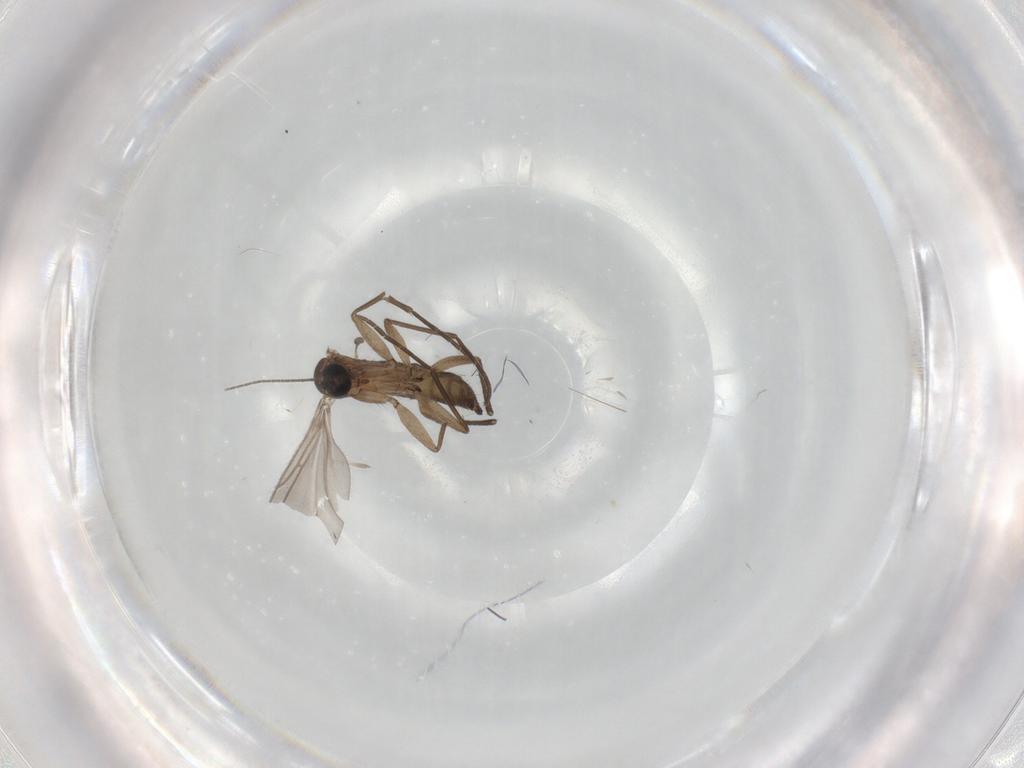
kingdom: Animalia
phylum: Arthropoda
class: Insecta
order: Diptera
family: Sciaridae
